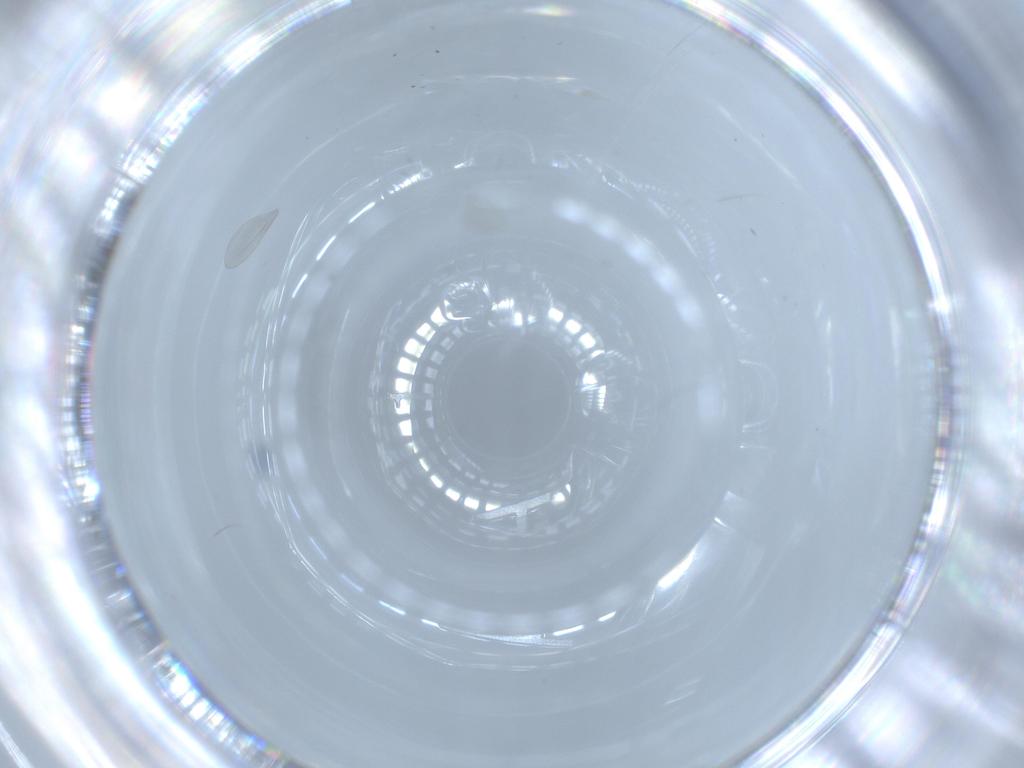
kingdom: Animalia
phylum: Arthropoda
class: Insecta
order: Diptera
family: Cecidomyiidae
